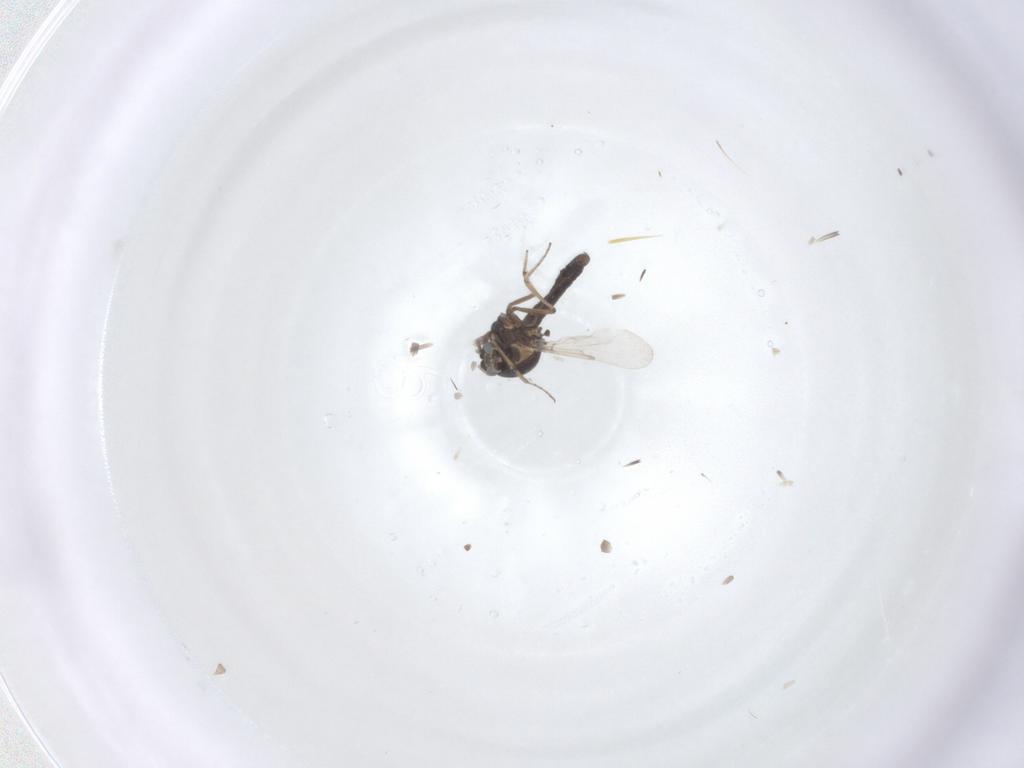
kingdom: Animalia
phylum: Arthropoda
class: Insecta
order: Diptera
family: Ceratopogonidae
